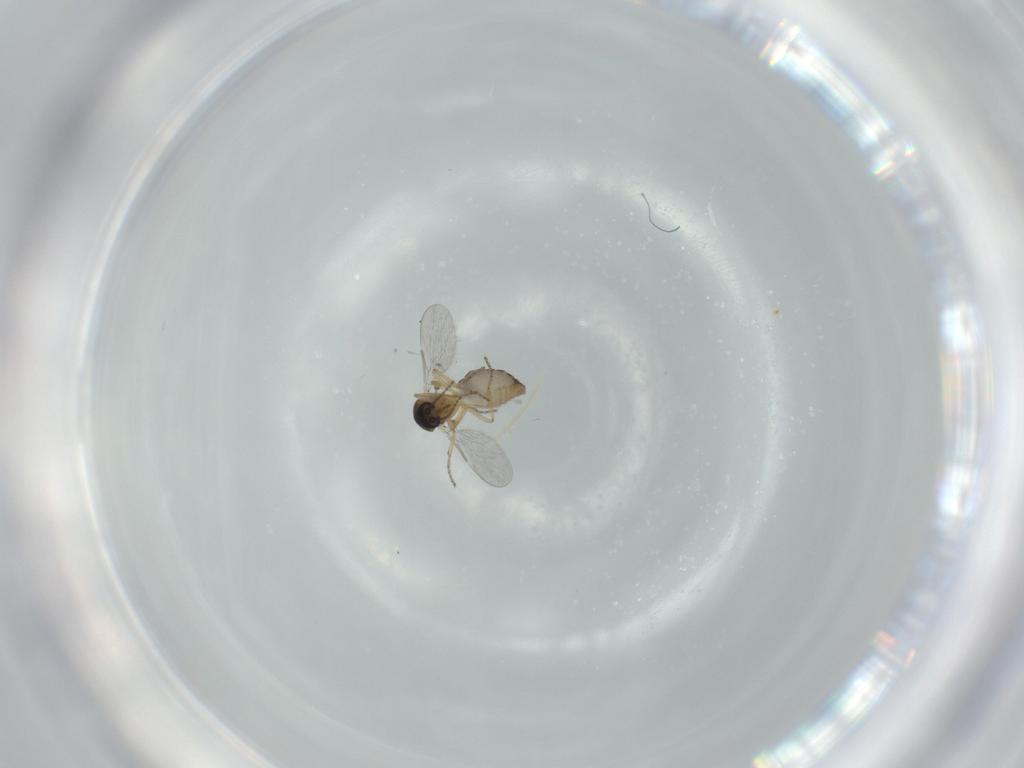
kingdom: Animalia
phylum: Arthropoda
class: Insecta
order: Diptera
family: Ceratopogonidae
